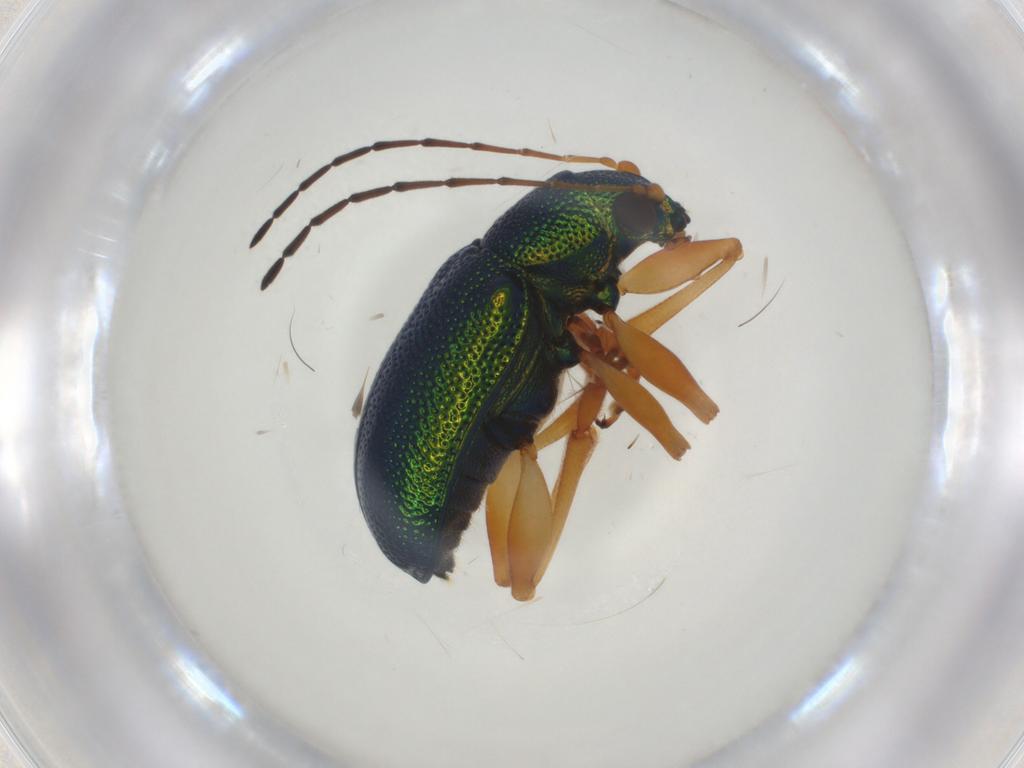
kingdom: Animalia
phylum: Arthropoda
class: Insecta
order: Coleoptera
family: Chrysomelidae
